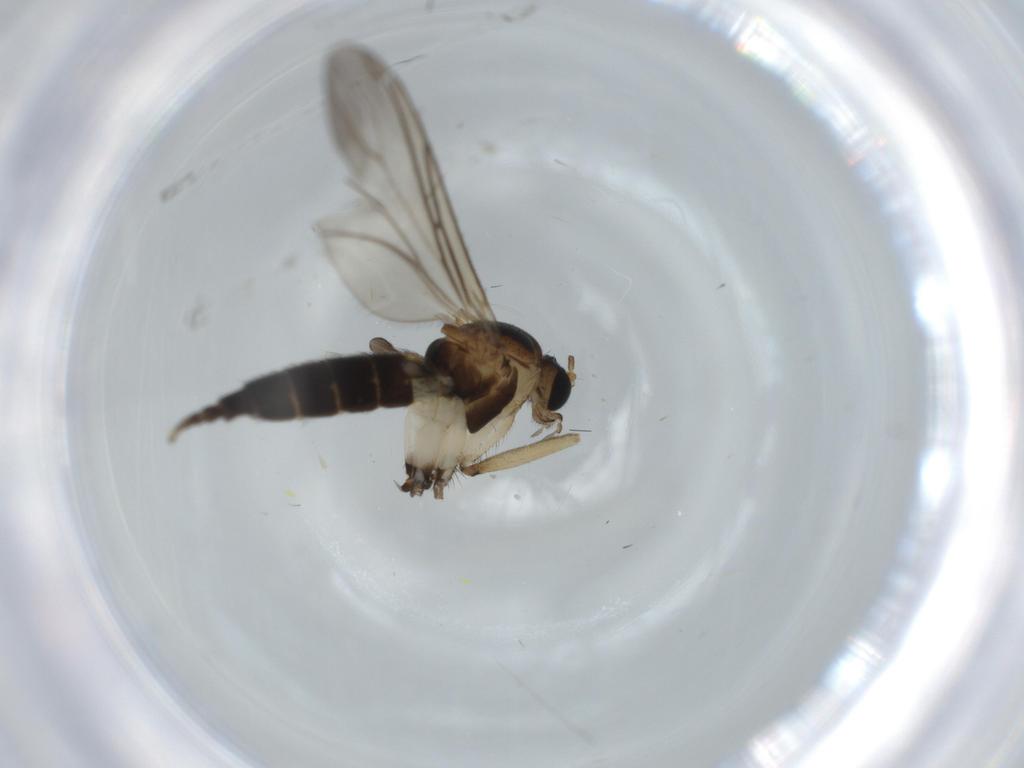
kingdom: Animalia
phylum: Arthropoda
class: Insecta
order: Diptera
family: Sciaridae
